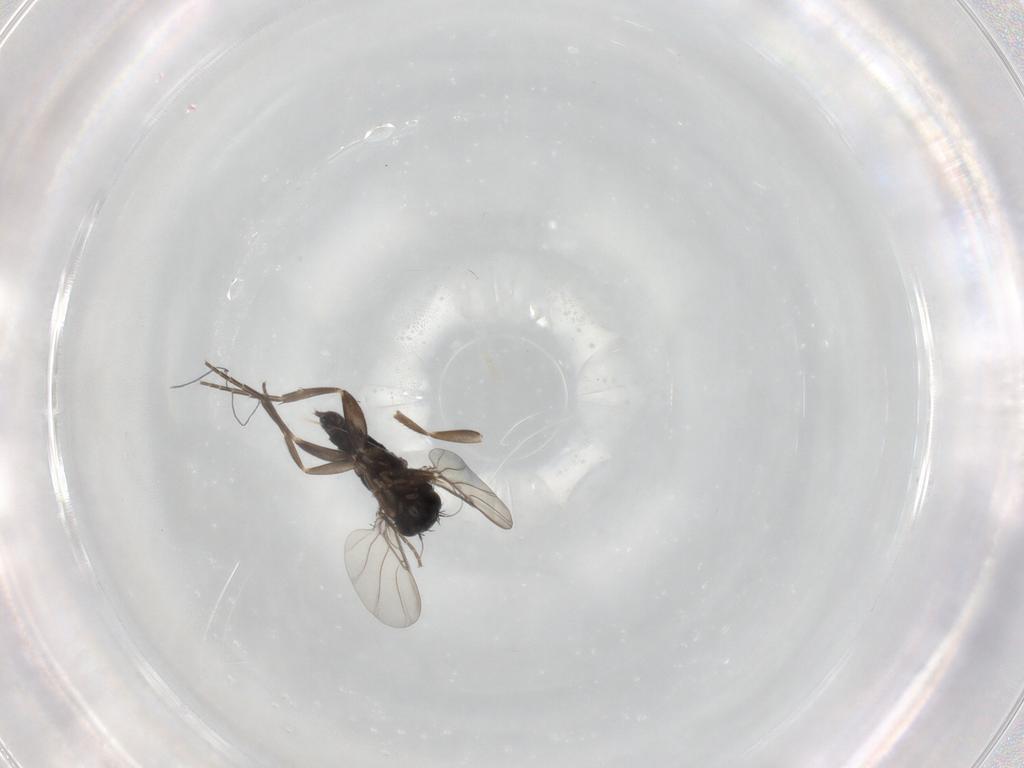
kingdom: Animalia
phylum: Arthropoda
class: Insecta
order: Diptera
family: Phoridae
